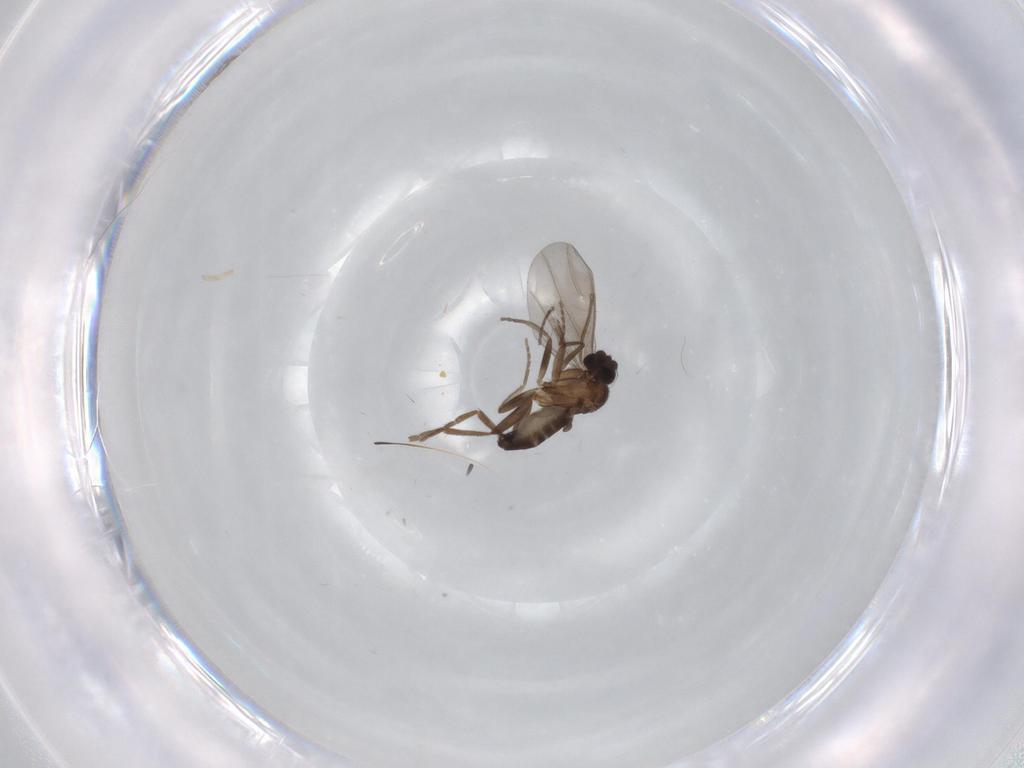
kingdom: Animalia
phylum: Arthropoda
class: Insecta
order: Diptera
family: Phoridae
